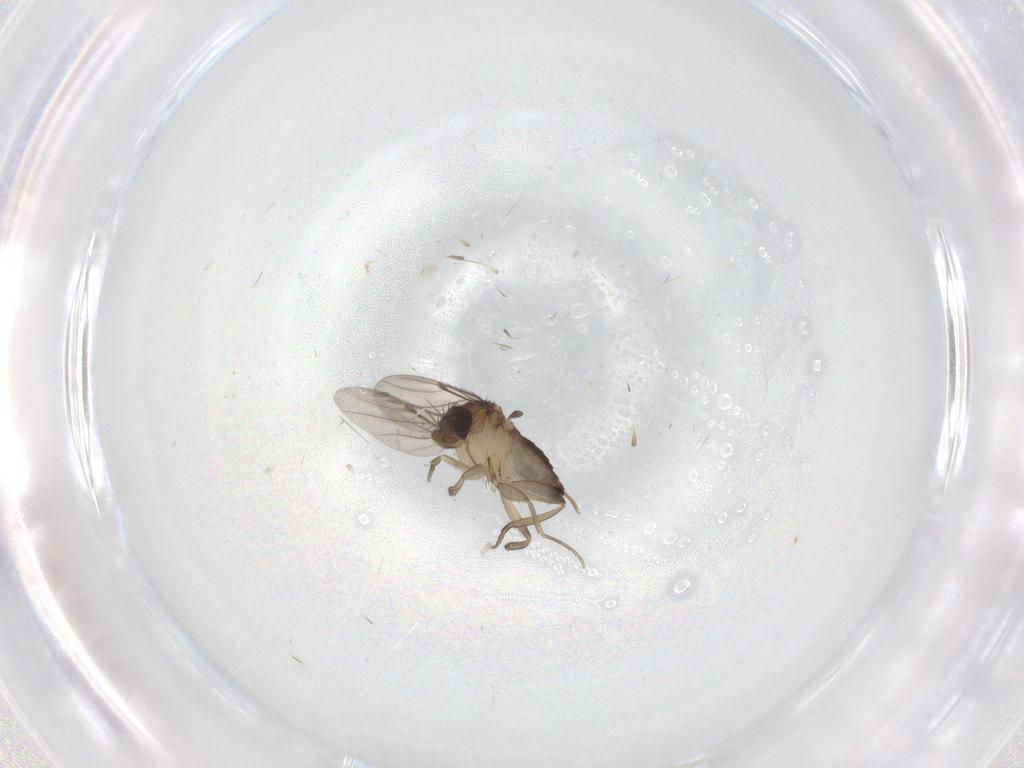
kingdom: Animalia
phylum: Arthropoda
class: Insecta
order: Diptera
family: Phoridae
